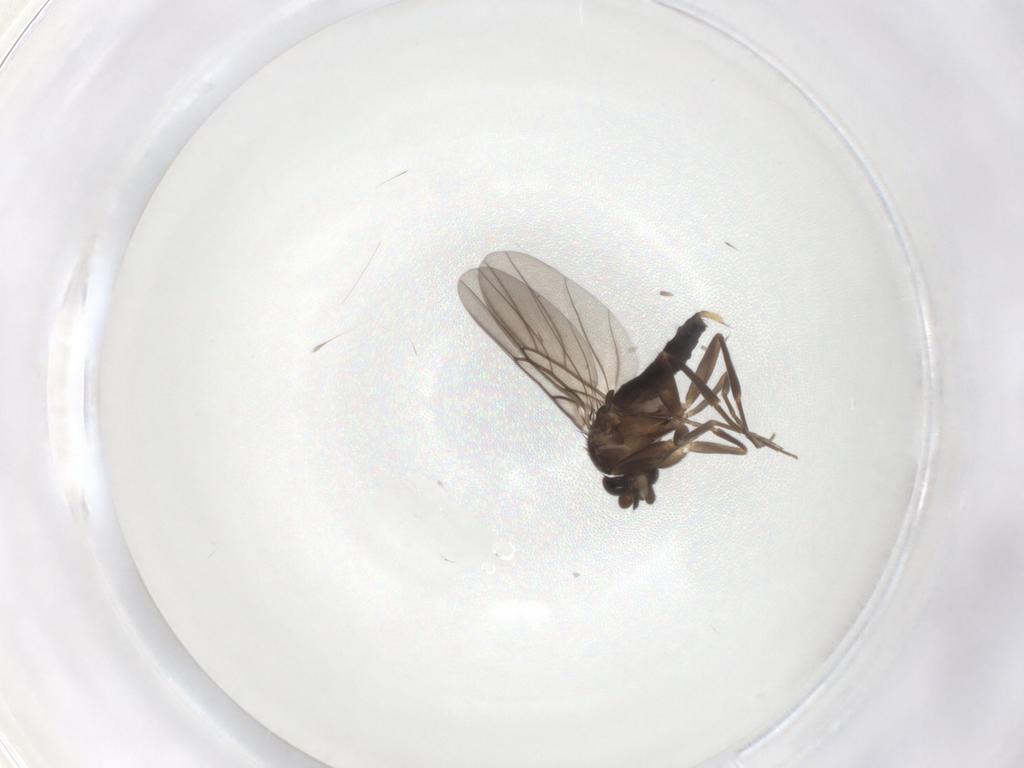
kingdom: Animalia
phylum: Arthropoda
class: Insecta
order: Diptera
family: Phoridae
